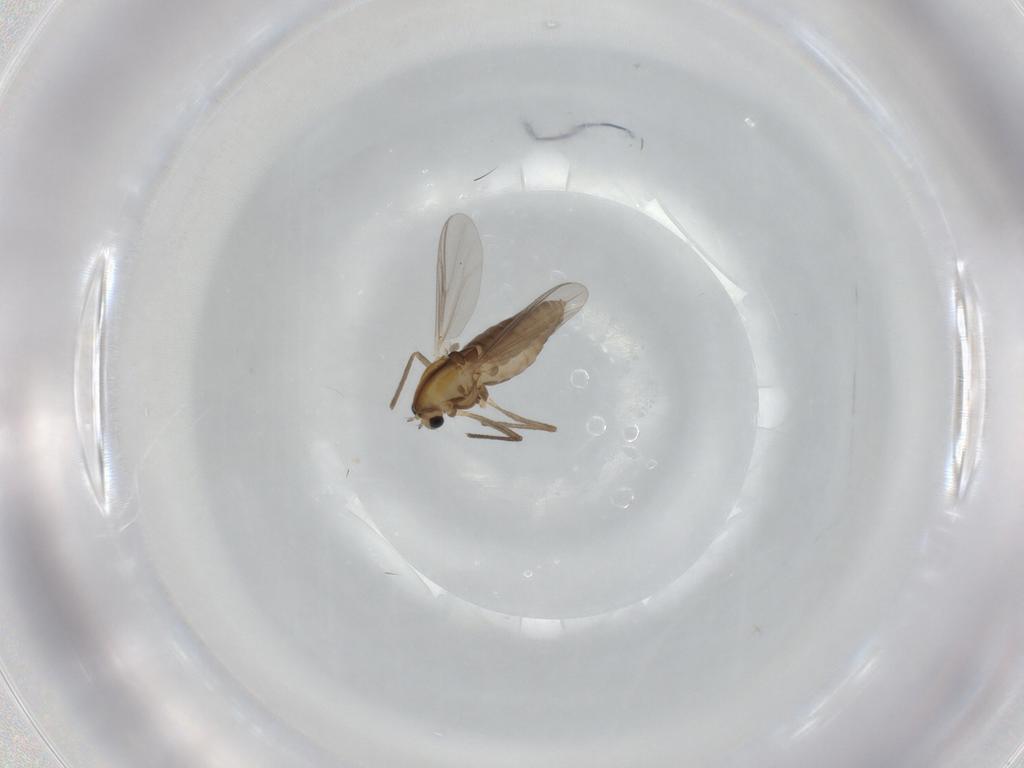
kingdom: Animalia
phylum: Arthropoda
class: Insecta
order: Diptera
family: Chironomidae
